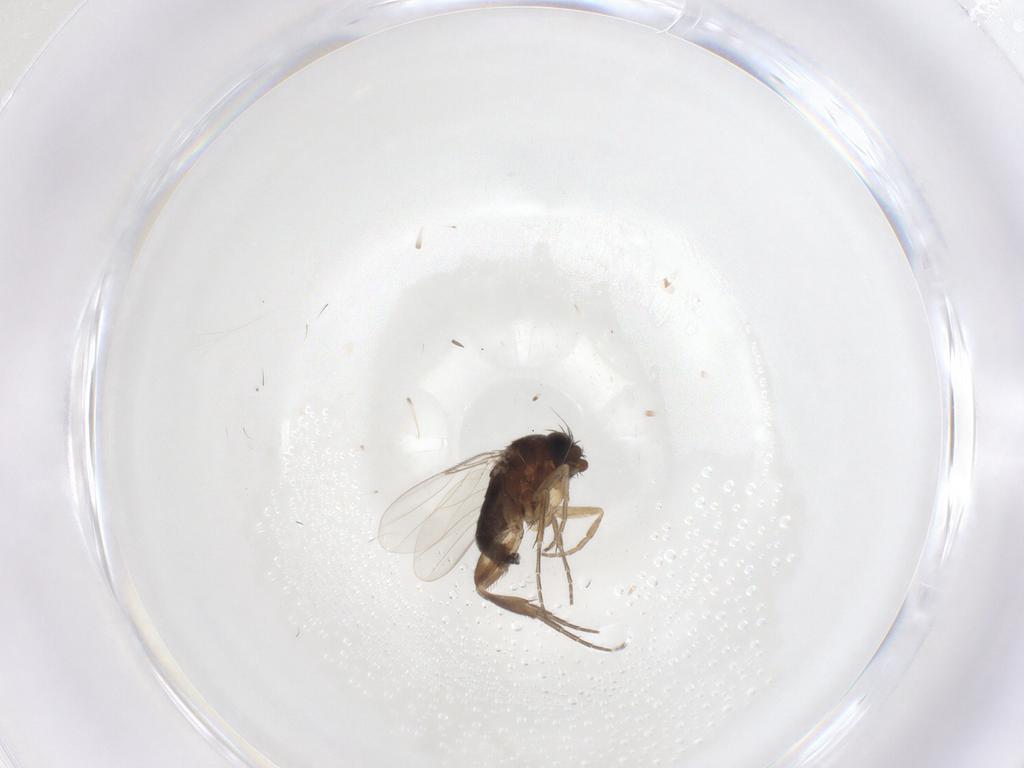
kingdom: Animalia
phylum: Arthropoda
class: Insecta
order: Diptera
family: Phoridae
